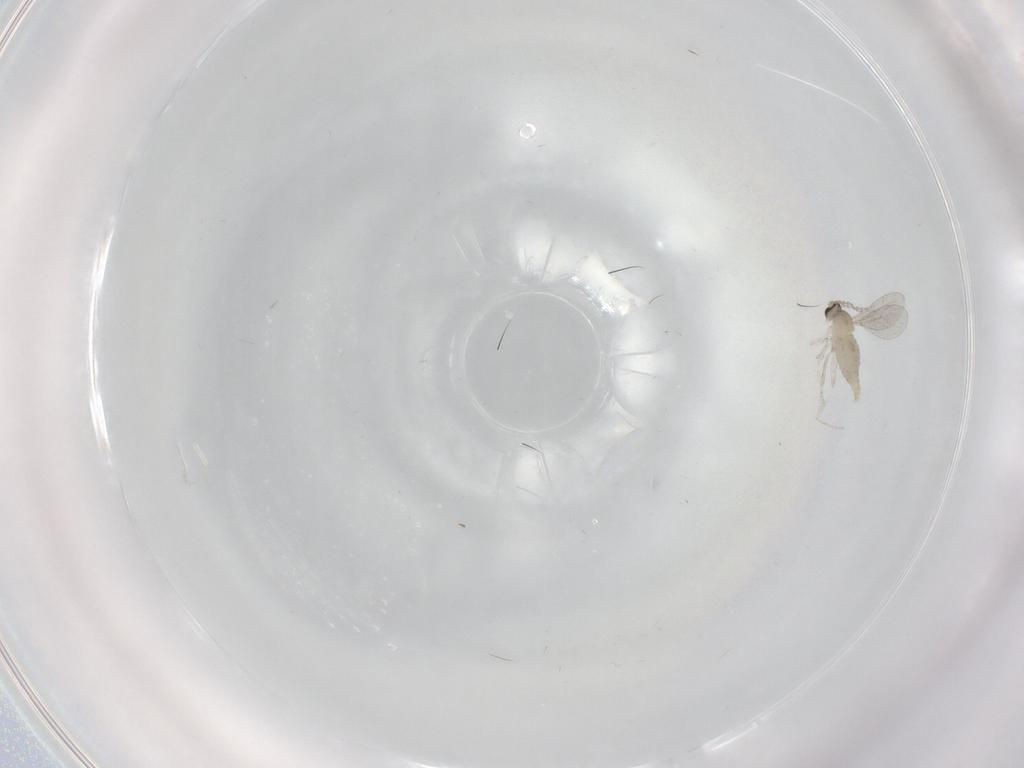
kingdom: Animalia
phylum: Arthropoda
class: Insecta
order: Diptera
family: Cecidomyiidae
